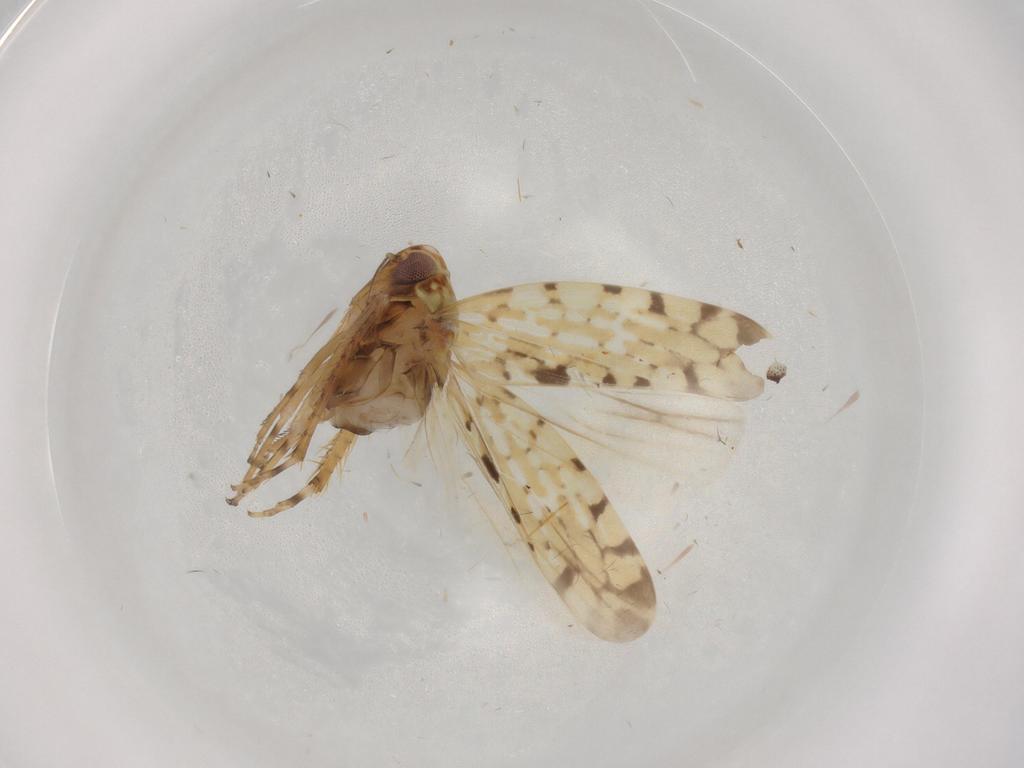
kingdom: Animalia
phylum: Arthropoda
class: Insecta
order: Hemiptera
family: Cicadellidae
